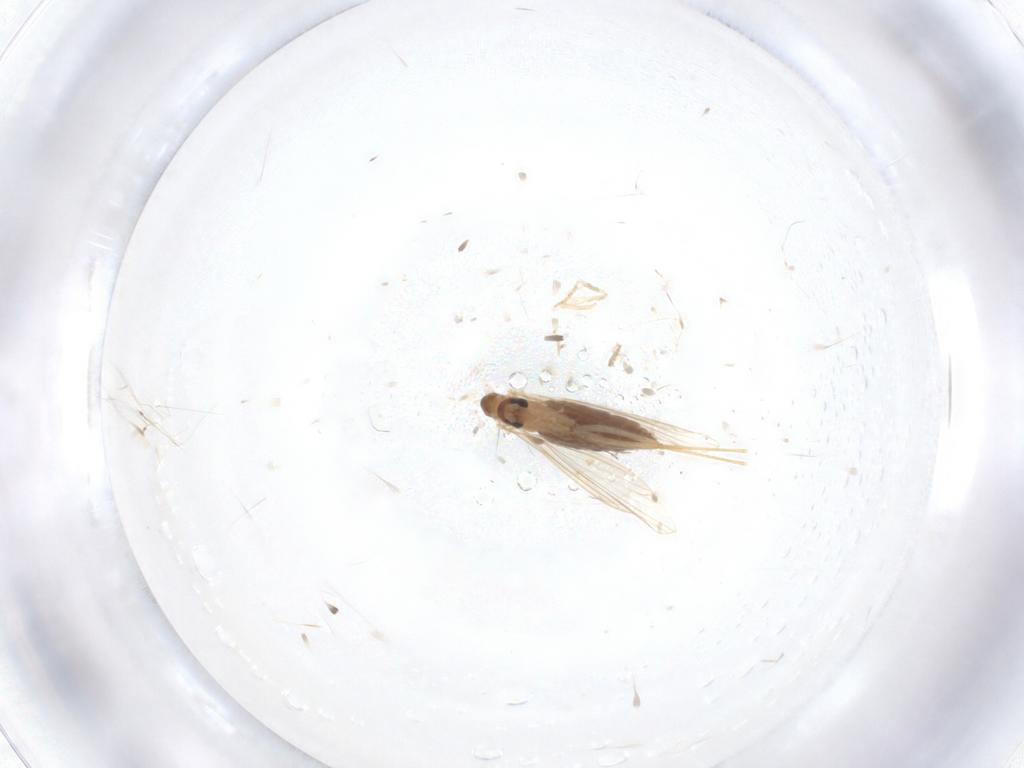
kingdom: Animalia
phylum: Arthropoda
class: Insecta
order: Diptera
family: Psychodidae
